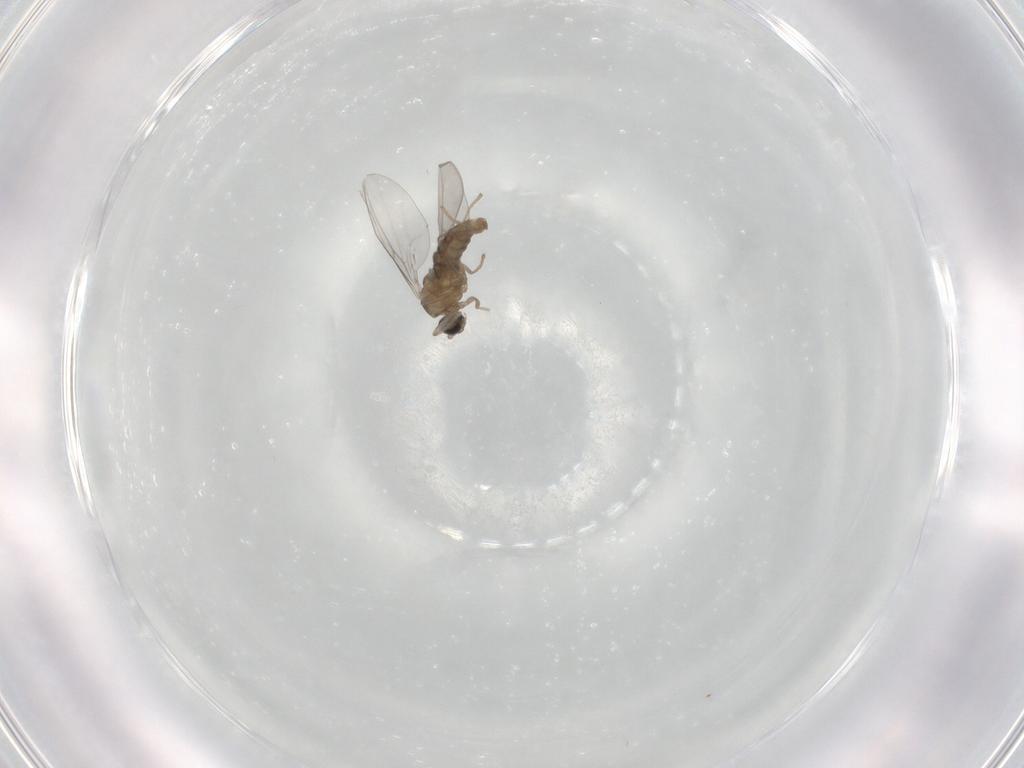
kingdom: Animalia
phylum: Arthropoda
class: Insecta
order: Diptera
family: Cecidomyiidae
